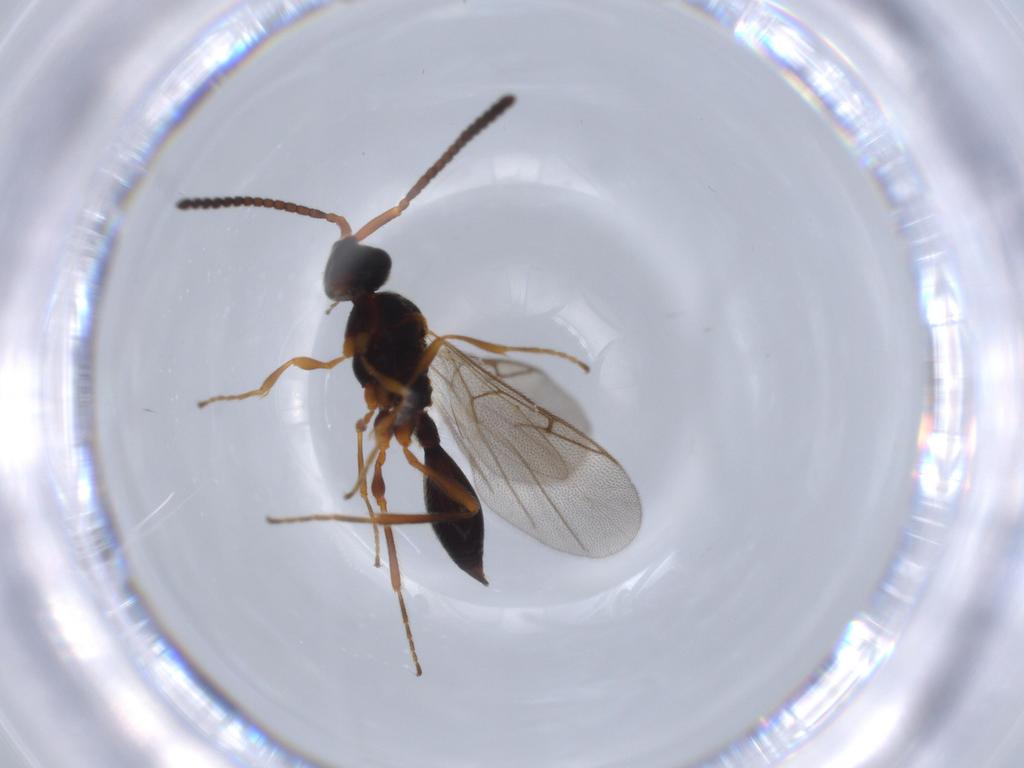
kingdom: Animalia
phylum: Arthropoda
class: Insecta
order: Hymenoptera
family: Diapriidae
